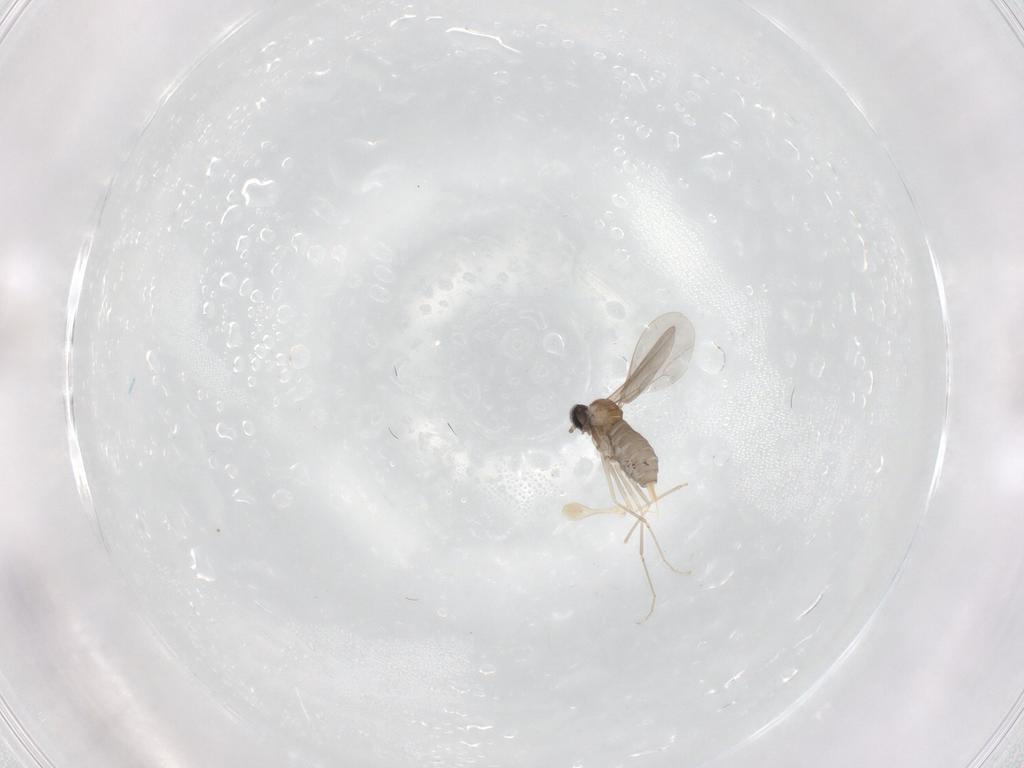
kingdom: Animalia
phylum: Arthropoda
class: Insecta
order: Diptera
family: Cecidomyiidae
